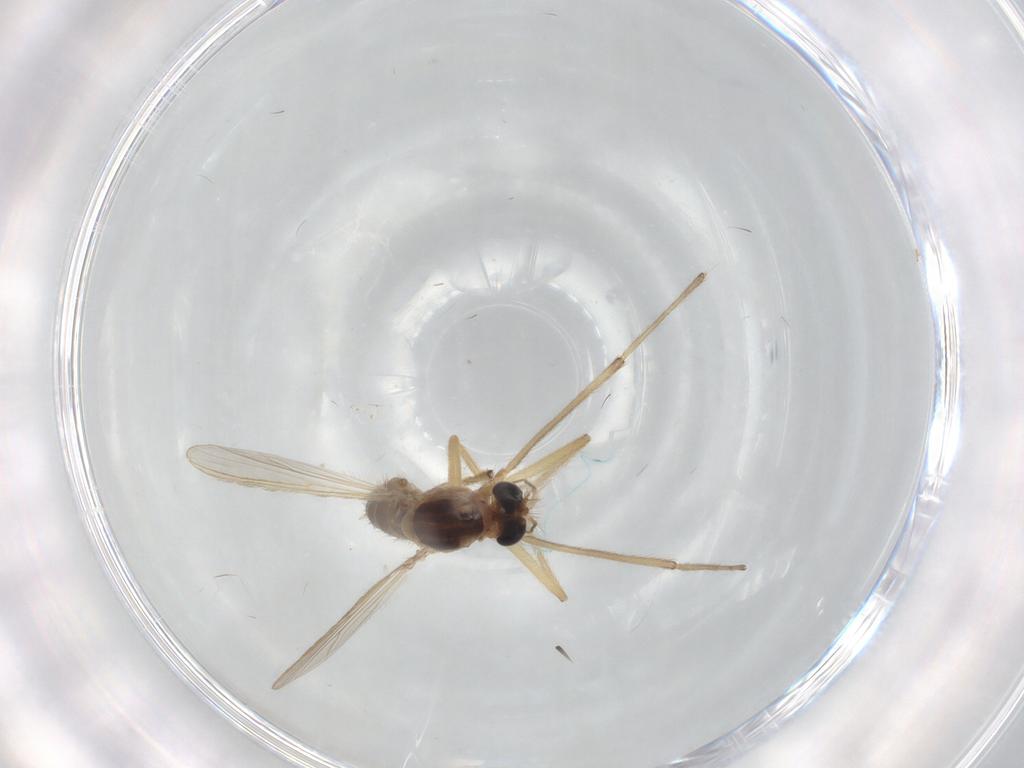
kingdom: Animalia
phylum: Arthropoda
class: Insecta
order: Diptera
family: Chironomidae
